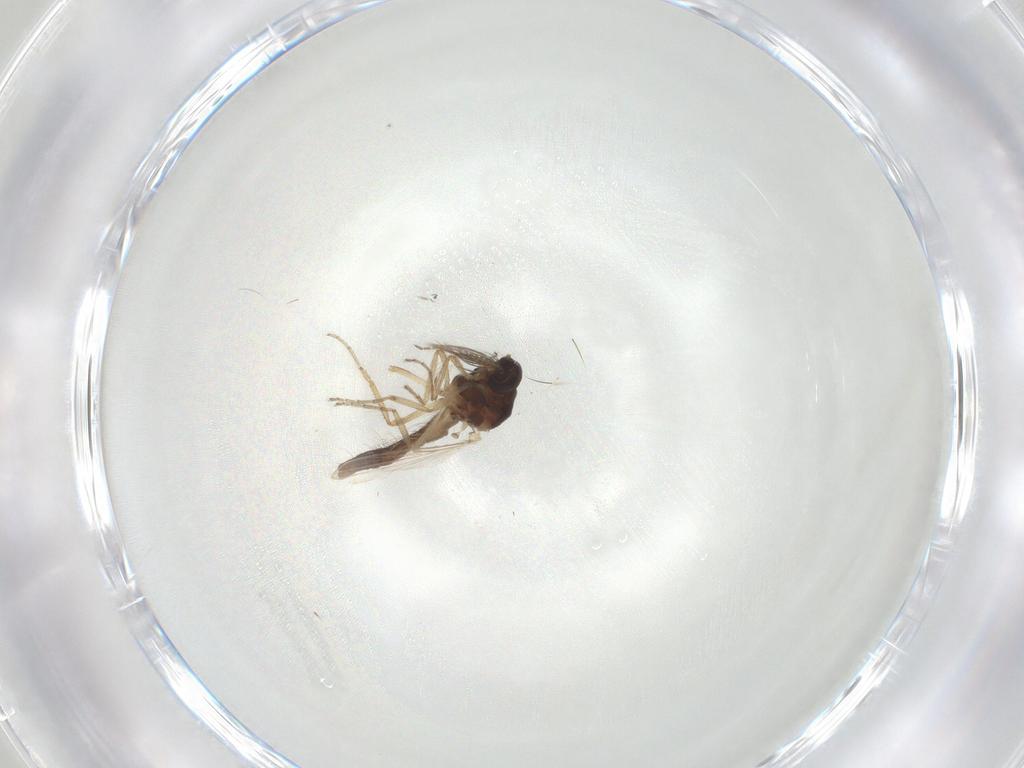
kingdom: Animalia
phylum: Arthropoda
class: Insecta
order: Diptera
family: Ceratopogonidae
